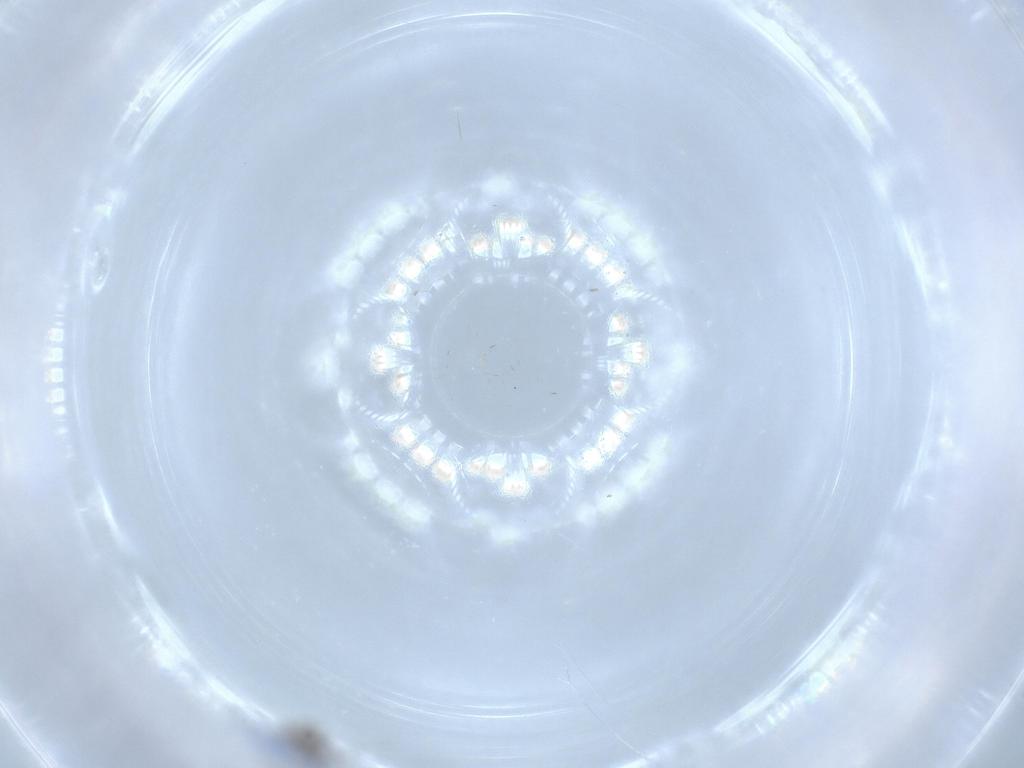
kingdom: Animalia
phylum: Arthropoda
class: Insecta
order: Diptera
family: Cecidomyiidae
